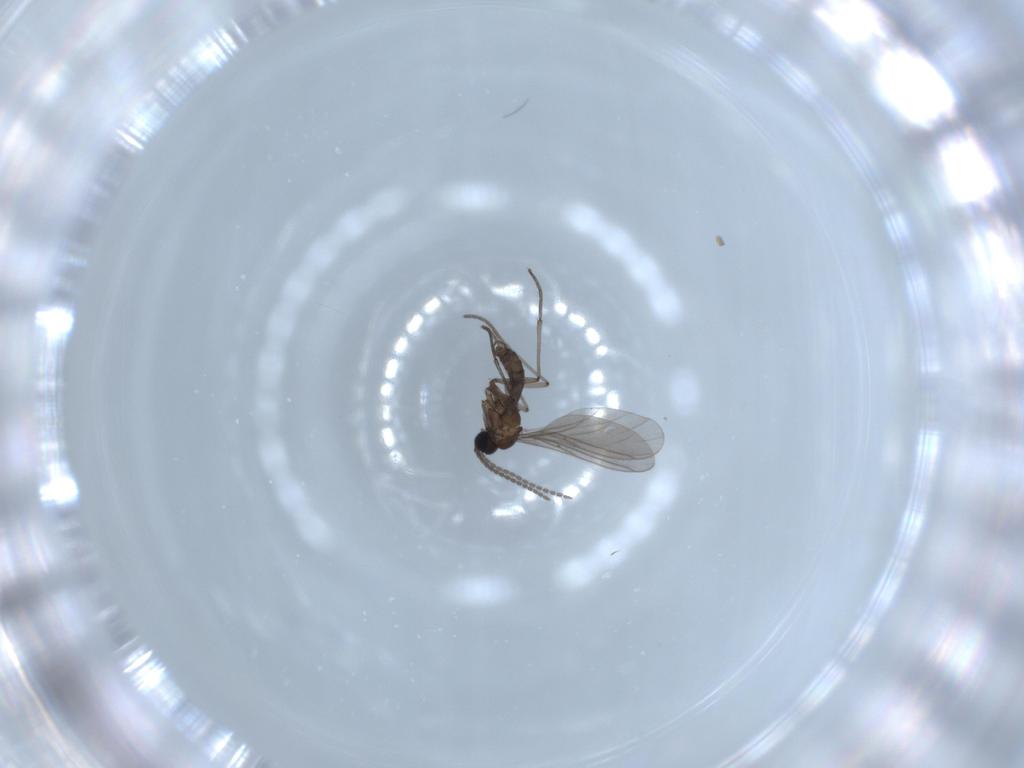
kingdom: Animalia
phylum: Arthropoda
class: Insecta
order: Diptera
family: Sciaridae
